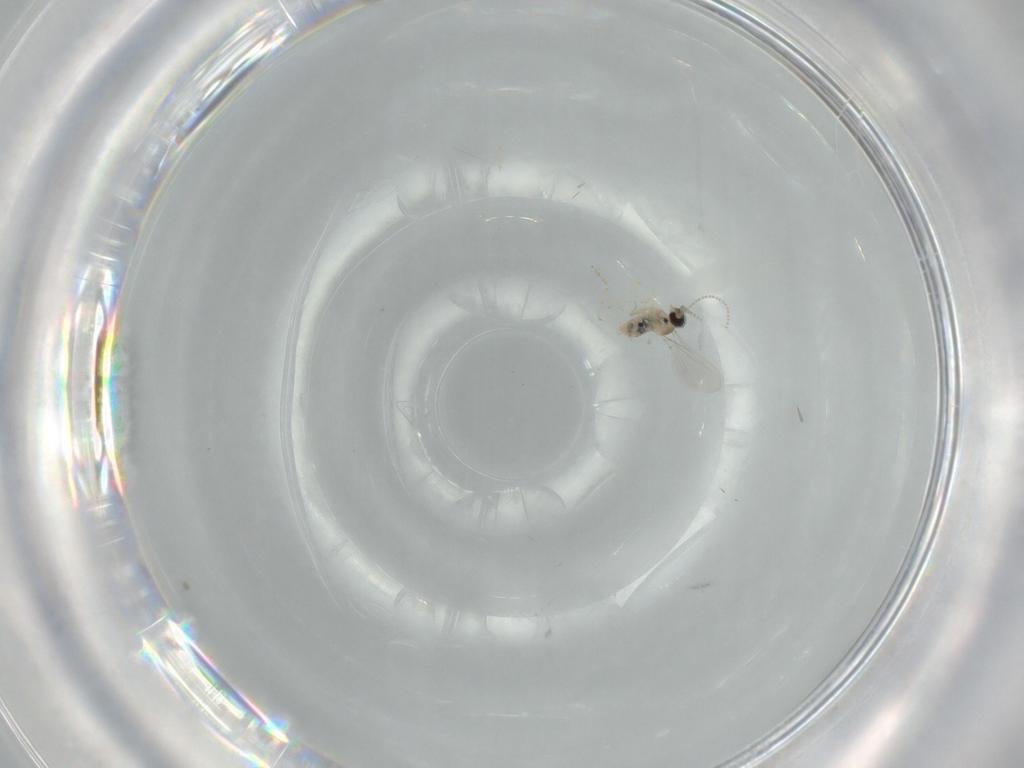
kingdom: Animalia
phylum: Arthropoda
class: Insecta
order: Diptera
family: Cecidomyiidae
